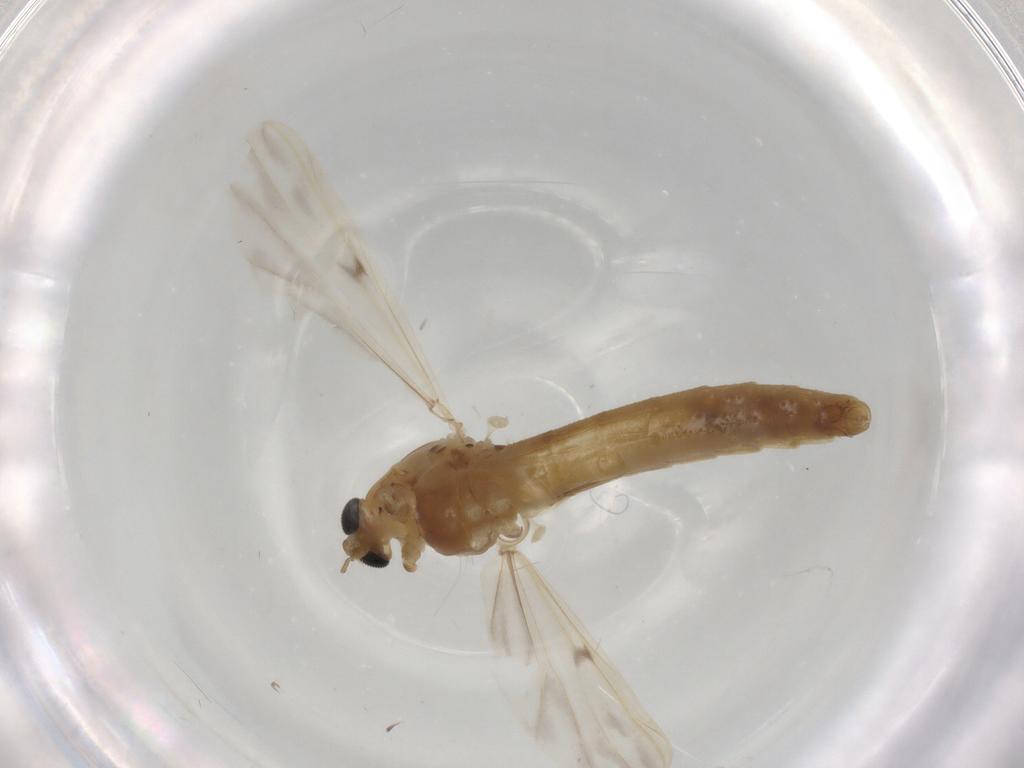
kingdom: Animalia
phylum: Arthropoda
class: Insecta
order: Diptera
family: Chironomidae
